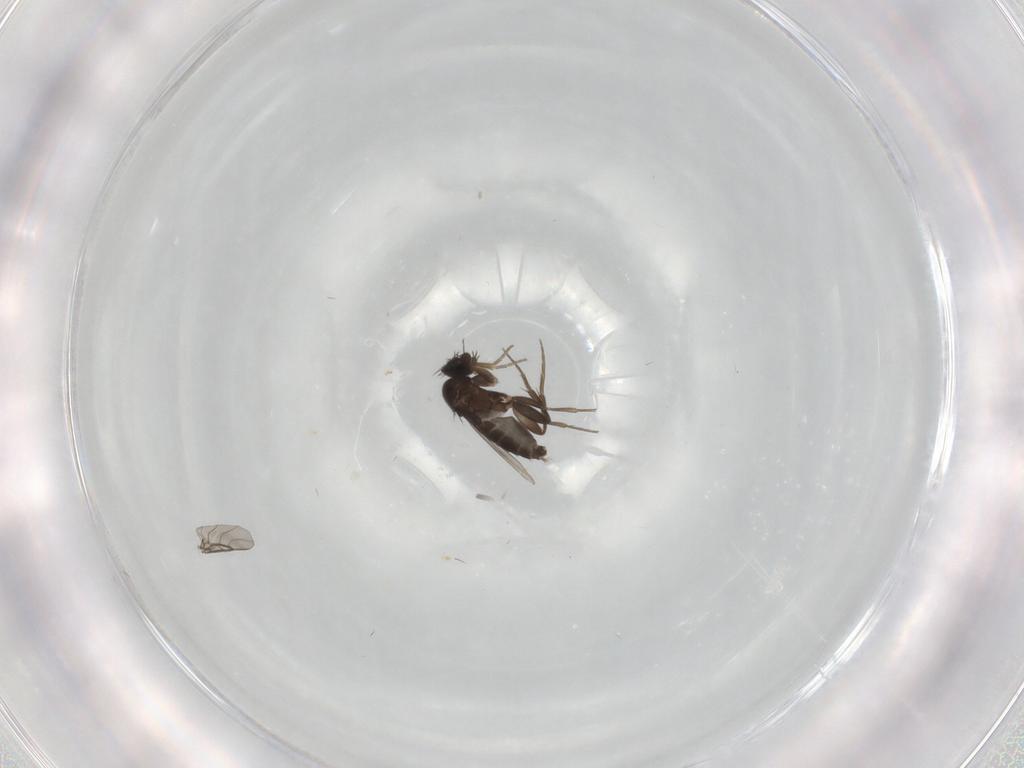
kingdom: Animalia
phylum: Arthropoda
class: Insecta
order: Diptera
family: Phoridae
